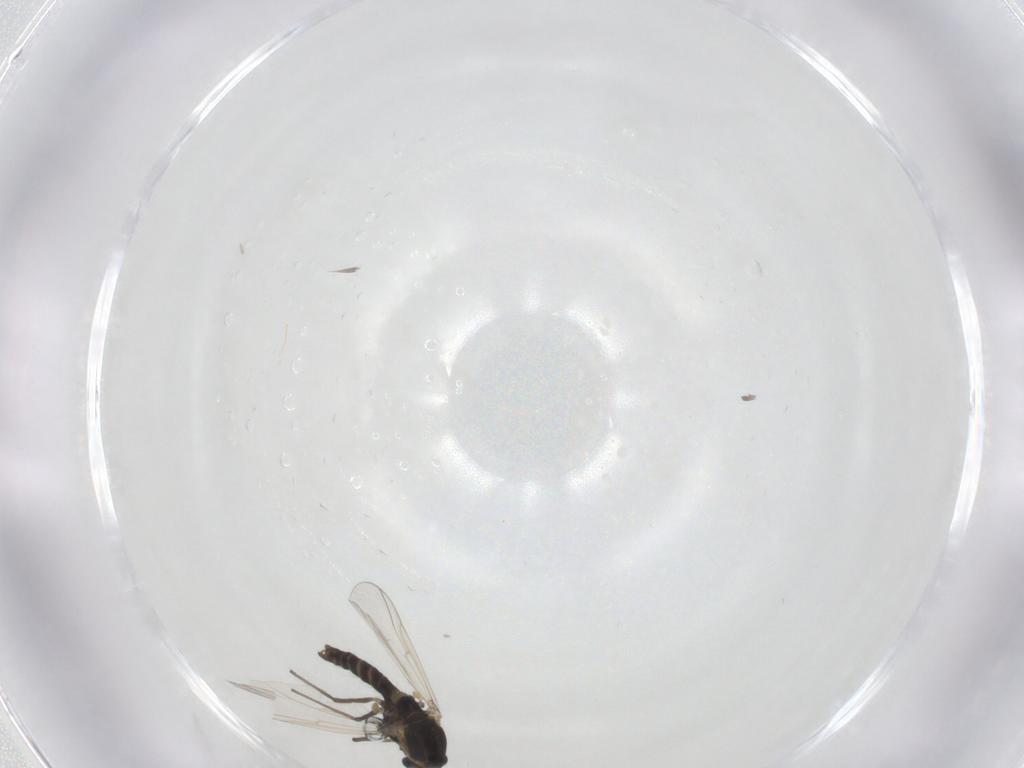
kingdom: Animalia
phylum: Arthropoda
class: Insecta
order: Diptera
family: Chironomidae
